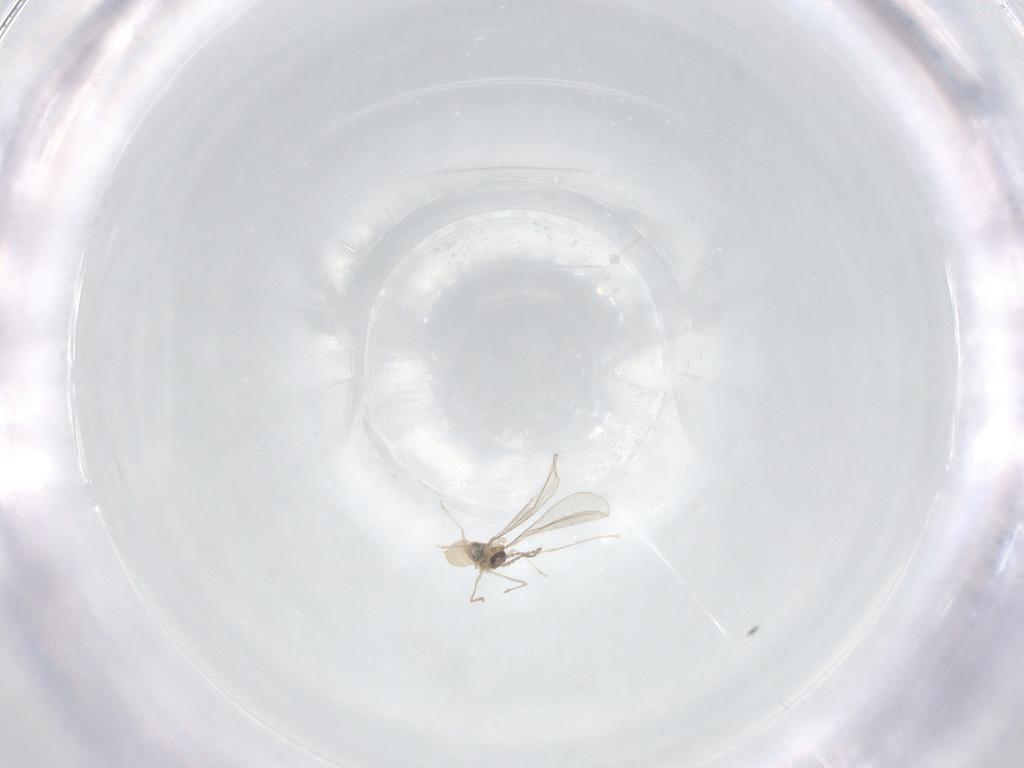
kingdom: Animalia
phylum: Arthropoda
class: Insecta
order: Diptera
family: Cecidomyiidae
